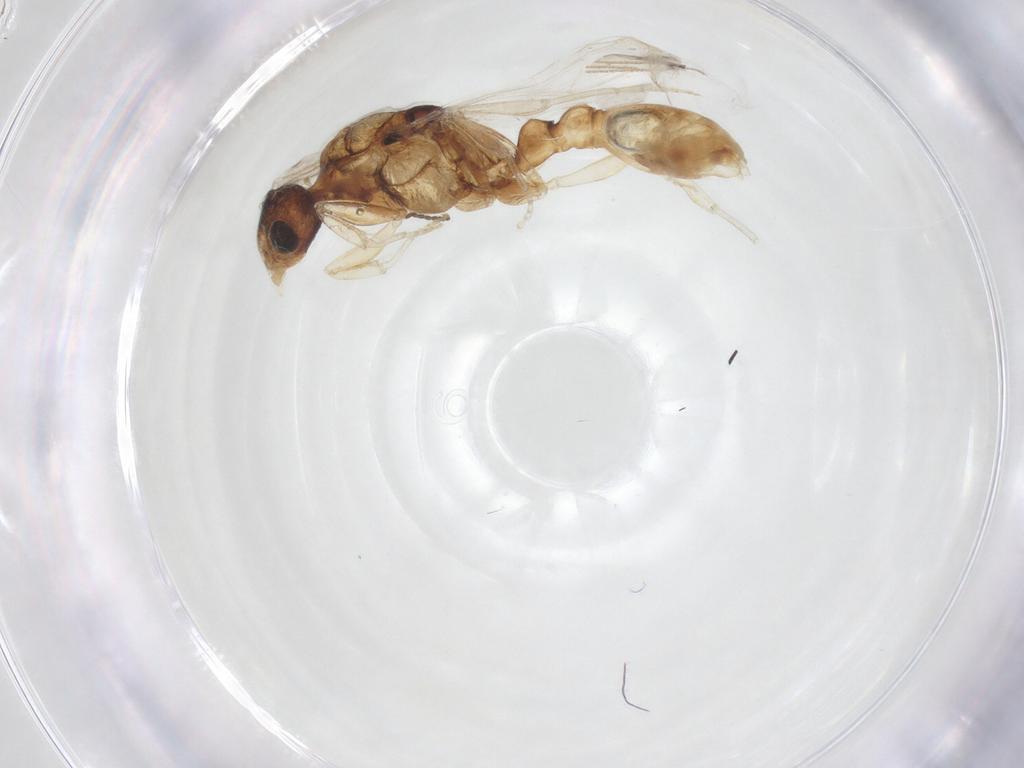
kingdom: Animalia
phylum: Arthropoda
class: Insecta
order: Hymenoptera
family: Formicidae
